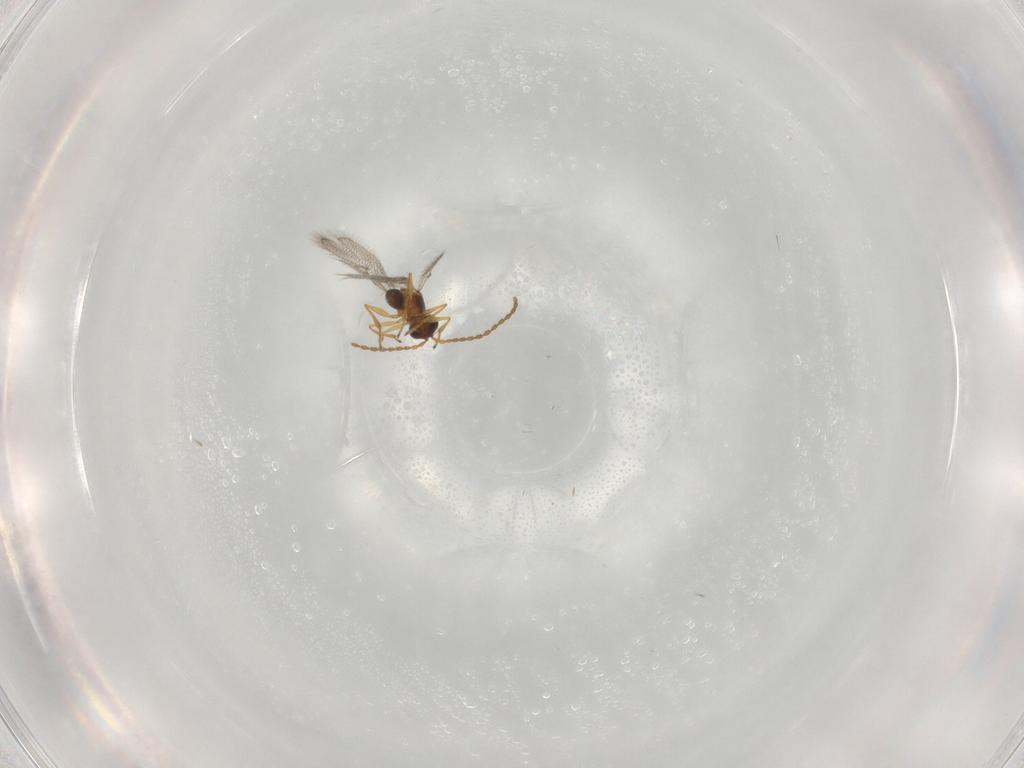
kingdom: Animalia
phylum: Arthropoda
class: Insecta
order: Hymenoptera
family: Figitidae
